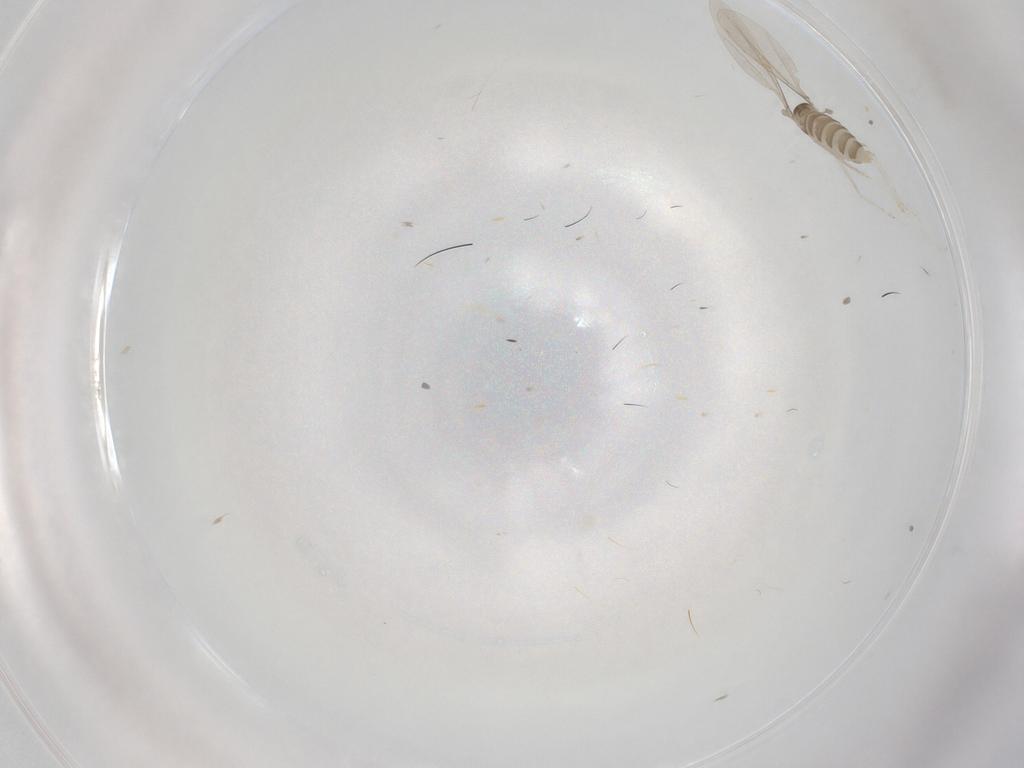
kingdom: Animalia
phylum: Arthropoda
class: Insecta
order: Diptera
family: Cecidomyiidae
